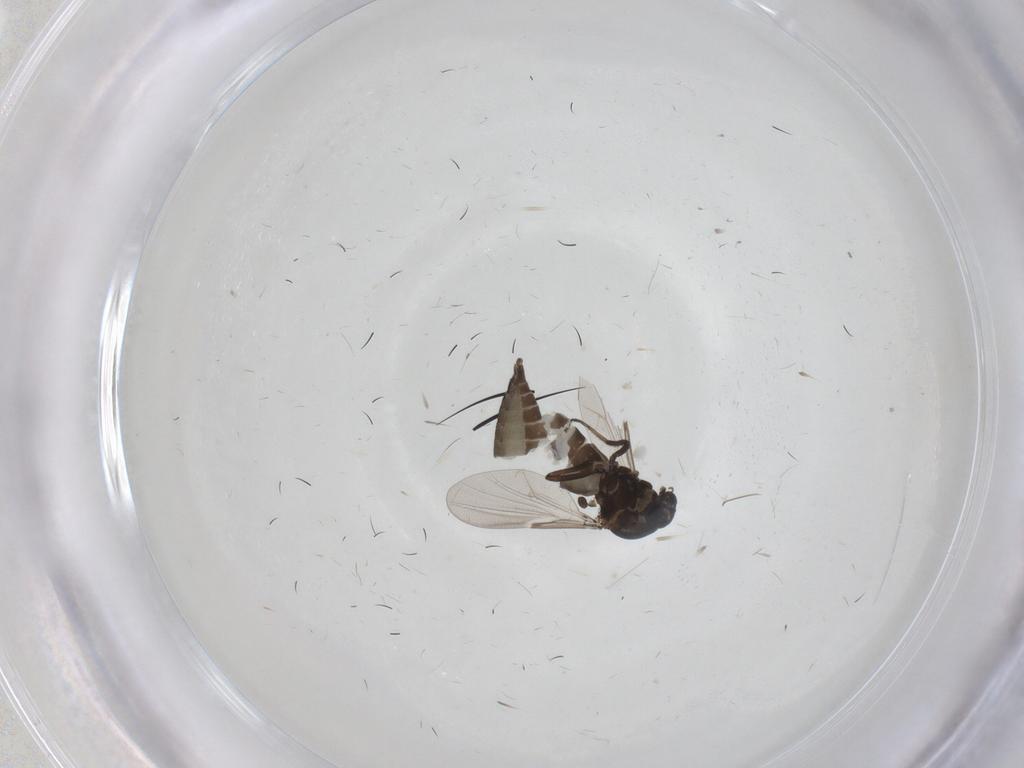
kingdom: Animalia
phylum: Arthropoda
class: Insecta
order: Diptera
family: Ceratopogonidae
